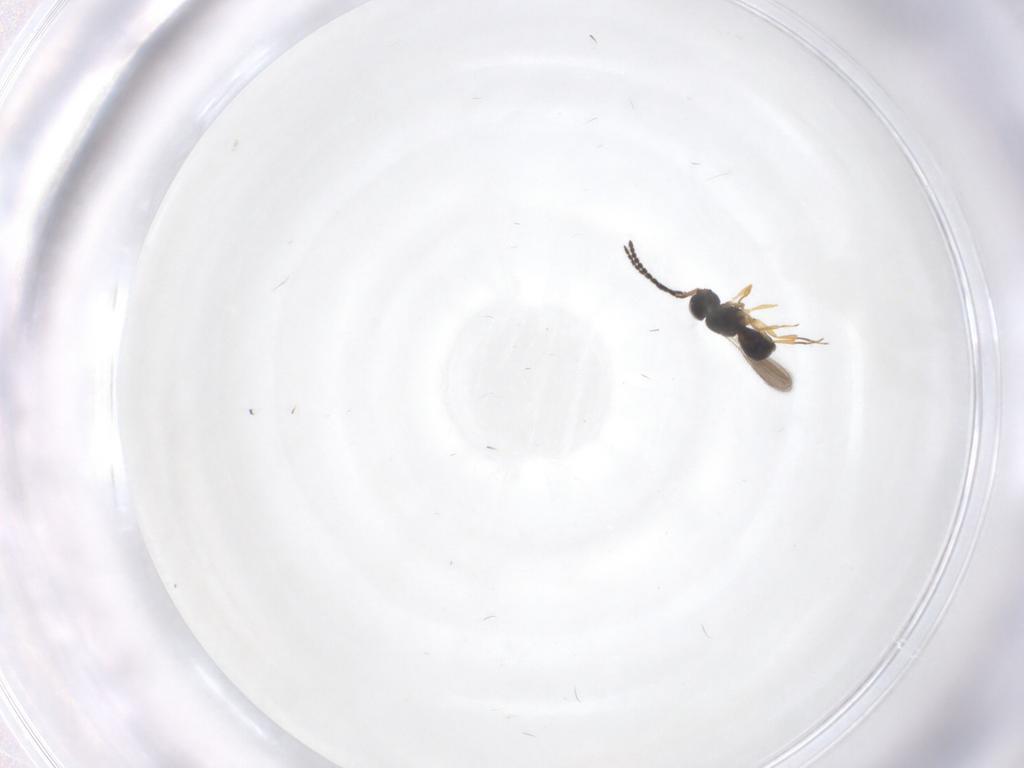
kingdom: Animalia
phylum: Arthropoda
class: Insecta
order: Hymenoptera
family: Scelionidae
